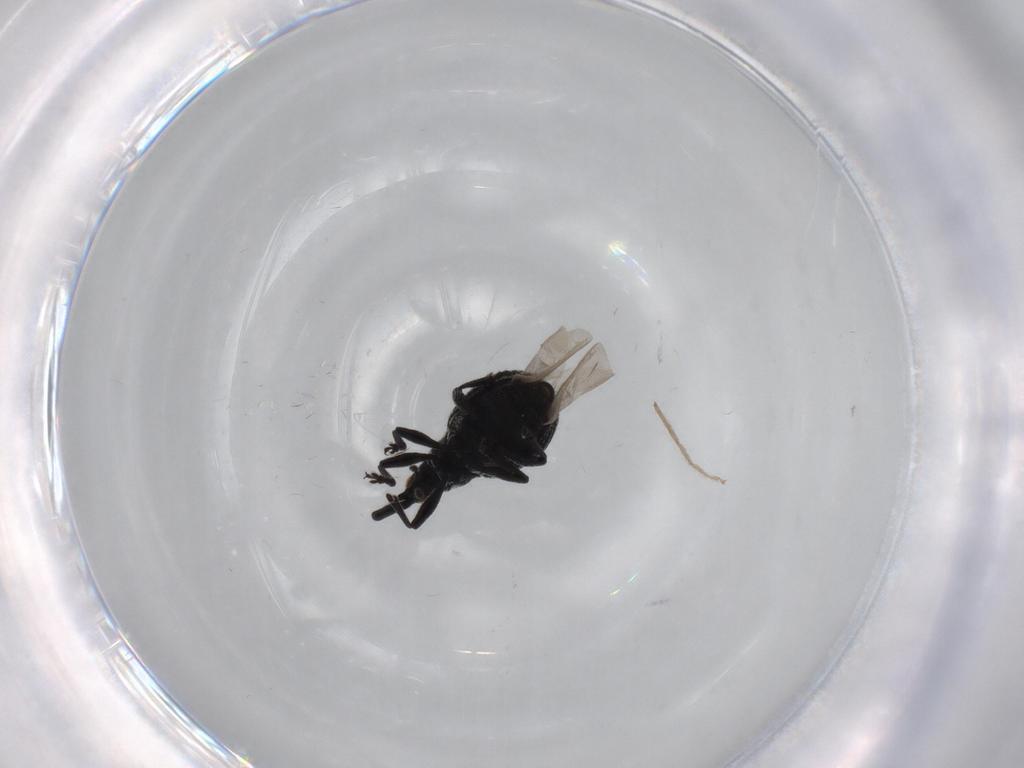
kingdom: Animalia
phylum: Arthropoda
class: Insecta
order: Coleoptera
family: Brentidae
